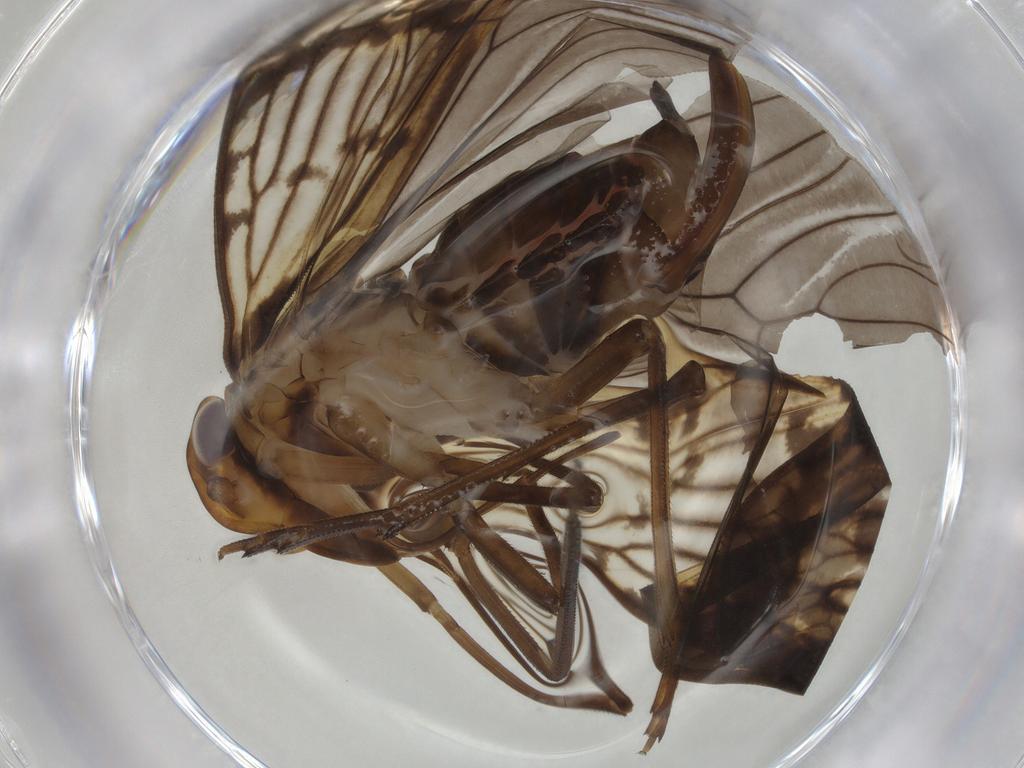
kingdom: Animalia
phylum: Arthropoda
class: Insecta
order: Hemiptera
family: Cixiidae
